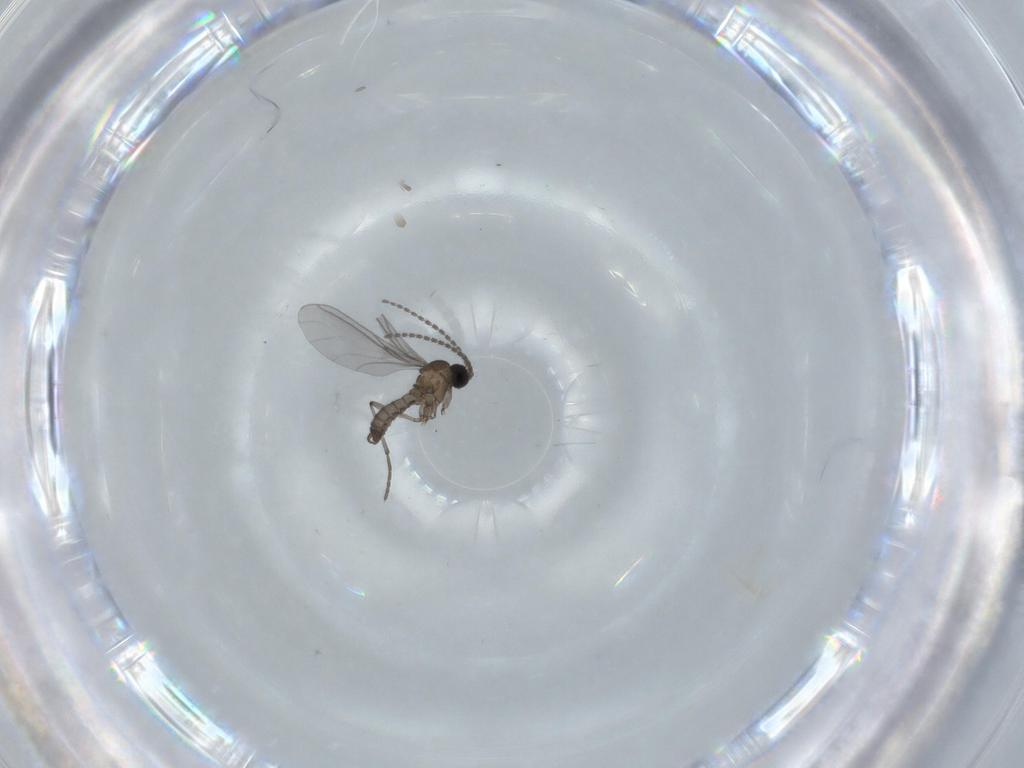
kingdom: Animalia
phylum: Arthropoda
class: Insecta
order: Diptera
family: Sciaridae
